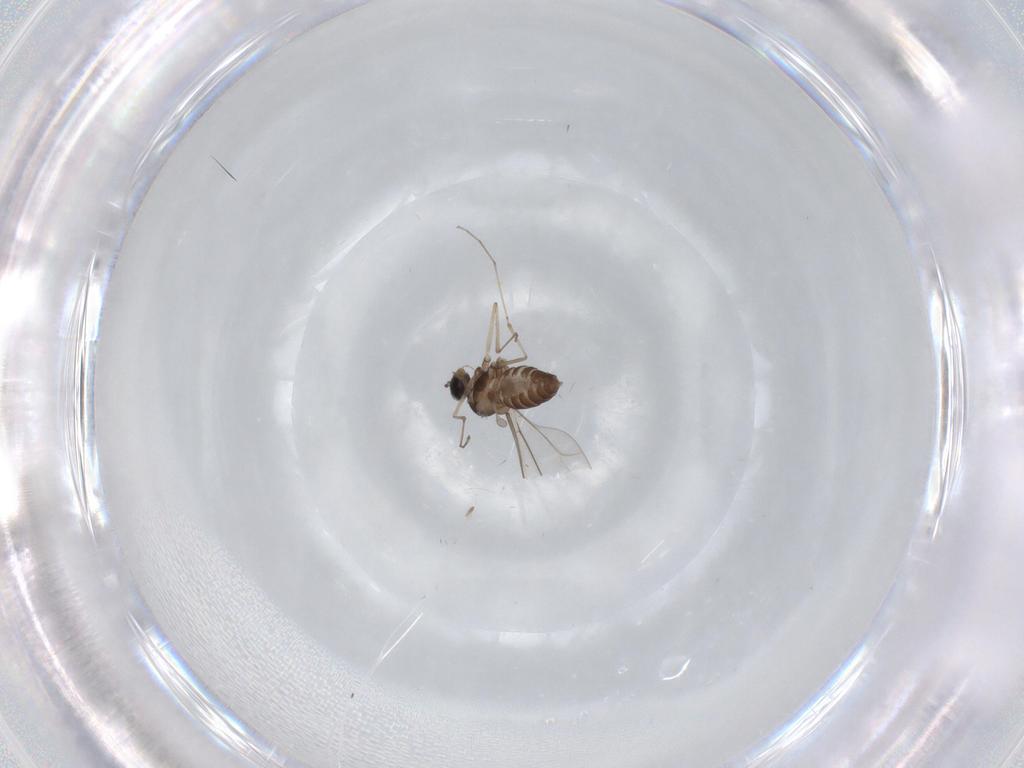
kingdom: Animalia
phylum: Arthropoda
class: Insecta
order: Diptera
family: Cecidomyiidae
